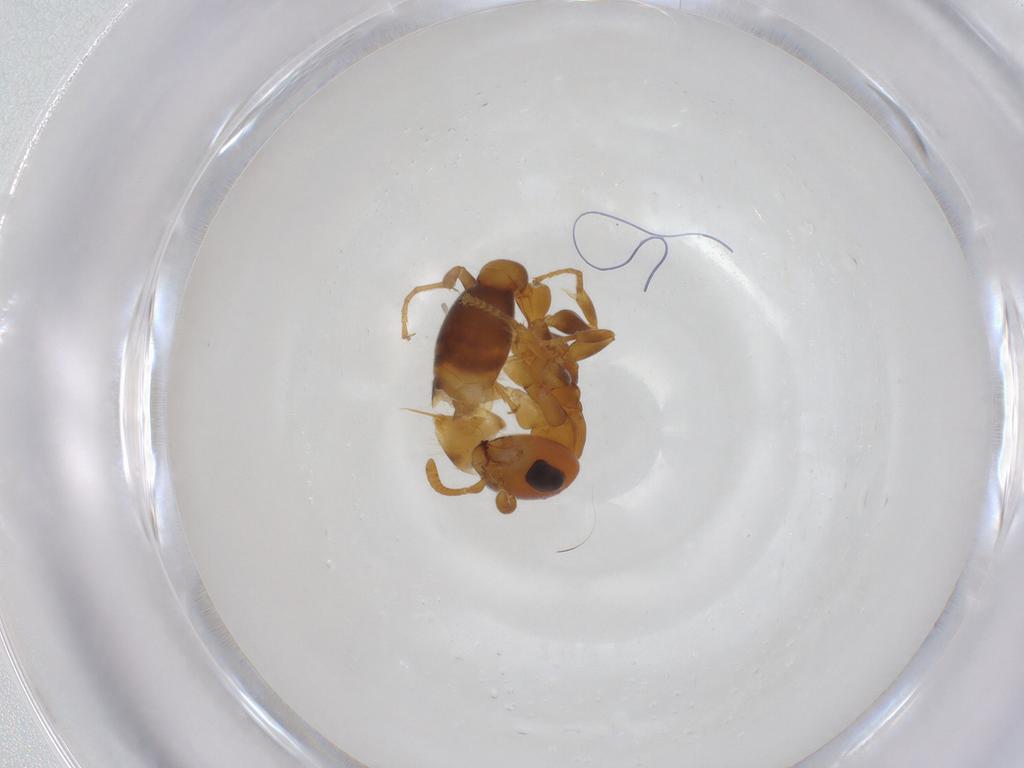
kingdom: Animalia
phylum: Arthropoda
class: Insecta
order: Hymenoptera
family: Formicidae
